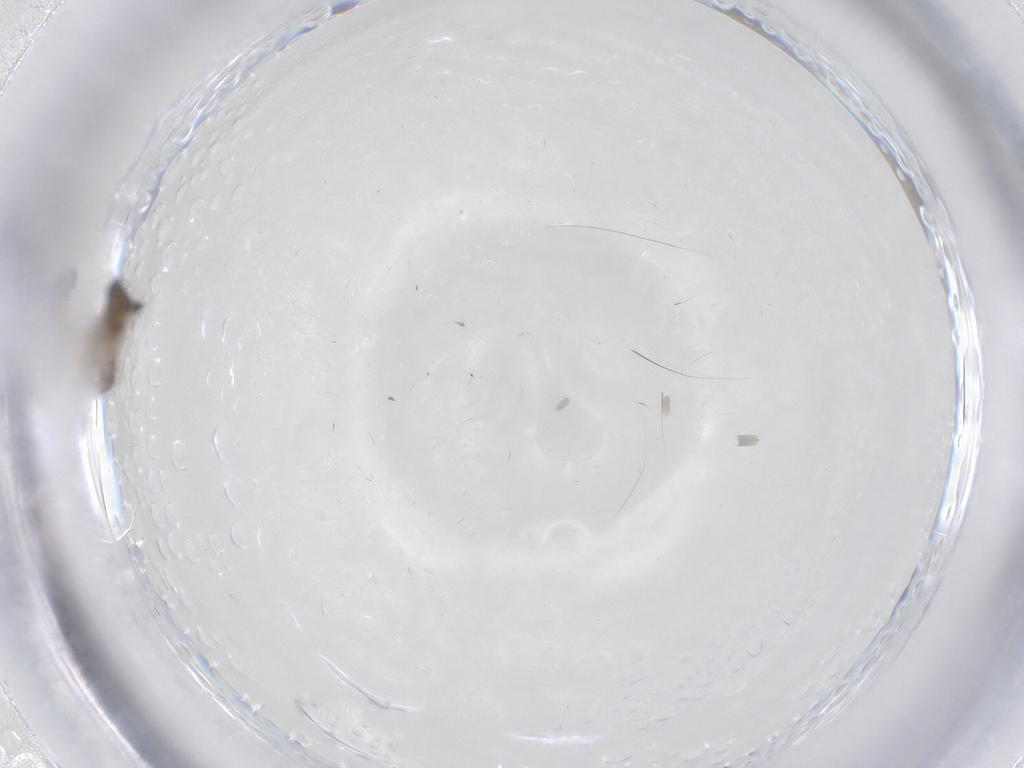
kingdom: Animalia
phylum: Arthropoda
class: Insecta
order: Diptera
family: Psychodidae
